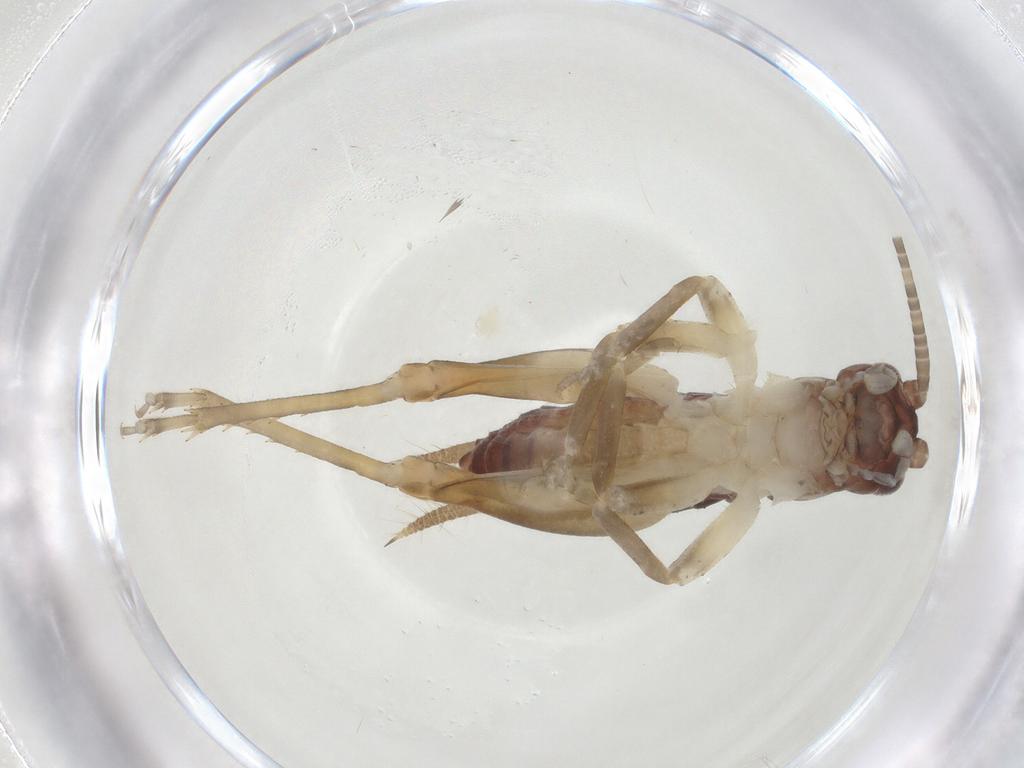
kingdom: Animalia
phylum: Arthropoda
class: Insecta
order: Orthoptera
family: Gryllidae
